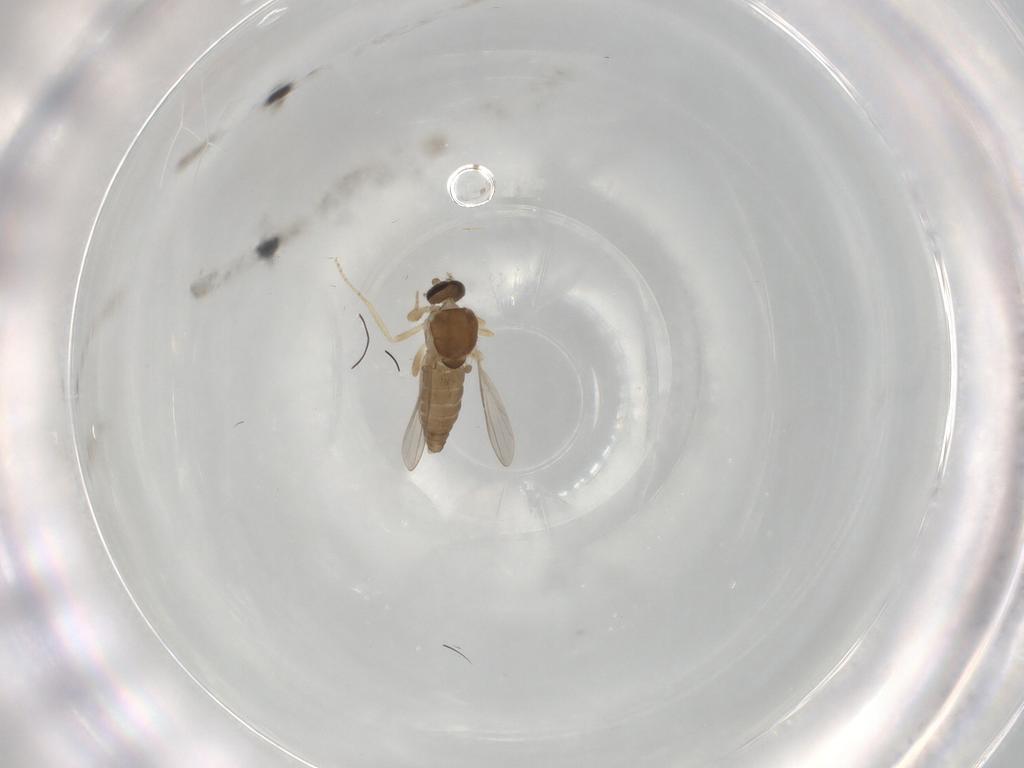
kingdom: Animalia
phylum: Arthropoda
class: Insecta
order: Diptera
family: Ceratopogonidae
